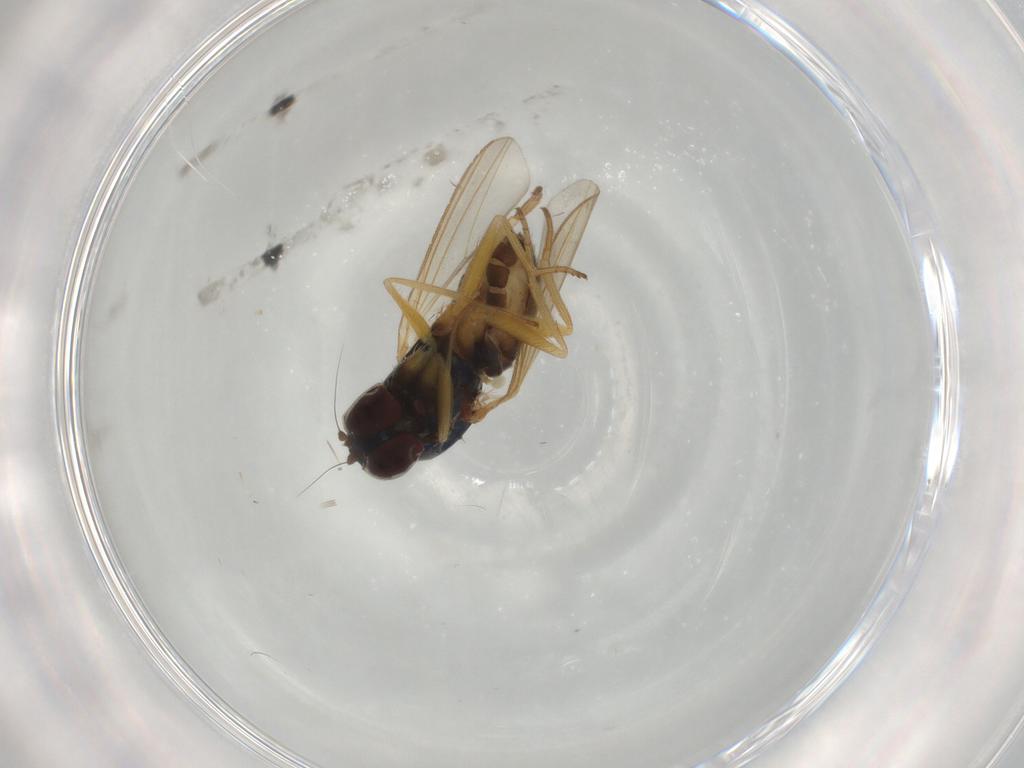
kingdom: Animalia
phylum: Arthropoda
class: Insecta
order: Diptera
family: Dolichopodidae
